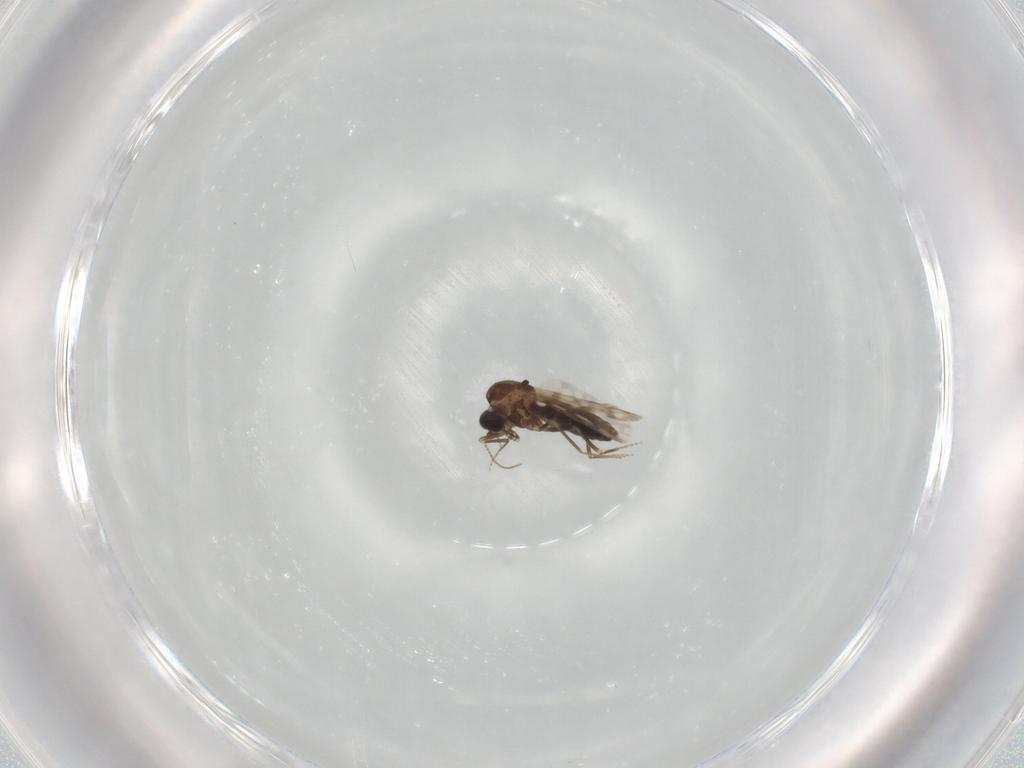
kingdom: Animalia
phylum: Arthropoda
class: Insecta
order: Diptera
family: Ceratopogonidae
